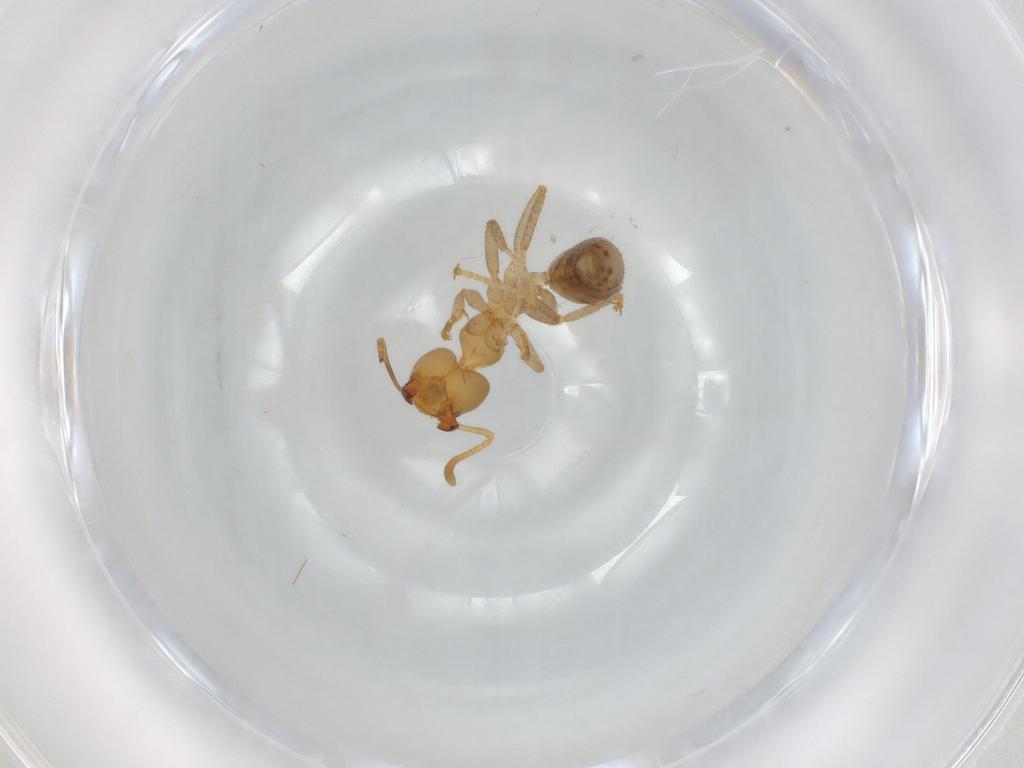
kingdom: Animalia
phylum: Arthropoda
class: Insecta
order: Hymenoptera
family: Formicidae
